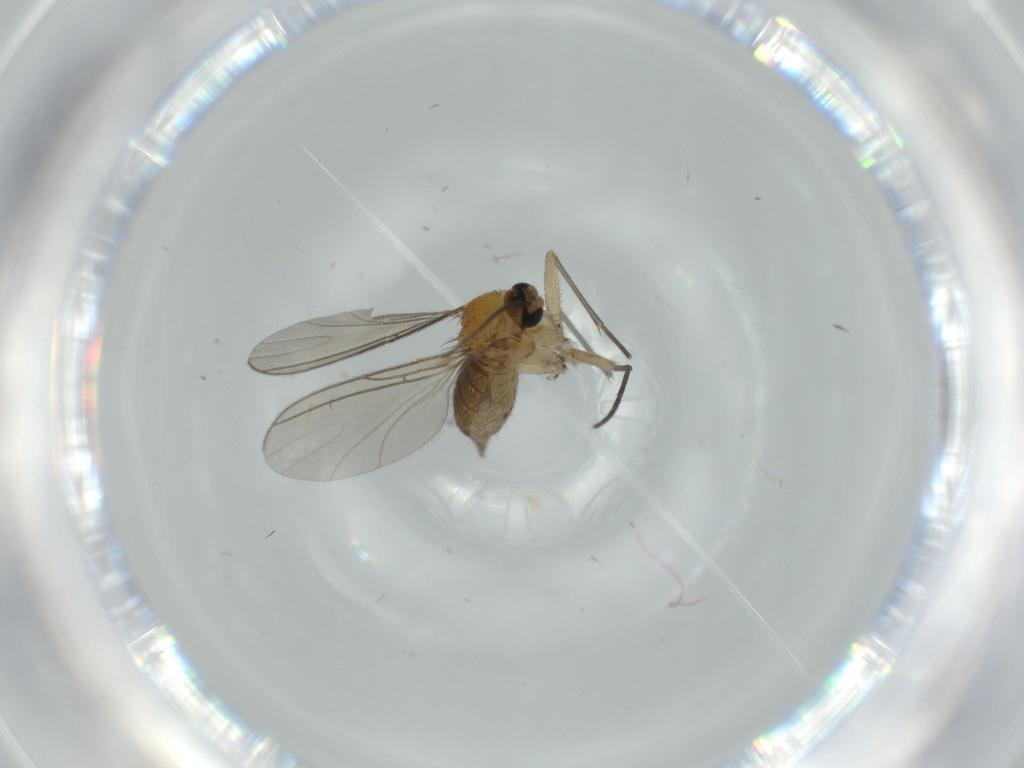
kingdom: Animalia
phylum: Arthropoda
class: Insecta
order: Diptera
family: Sciaridae
